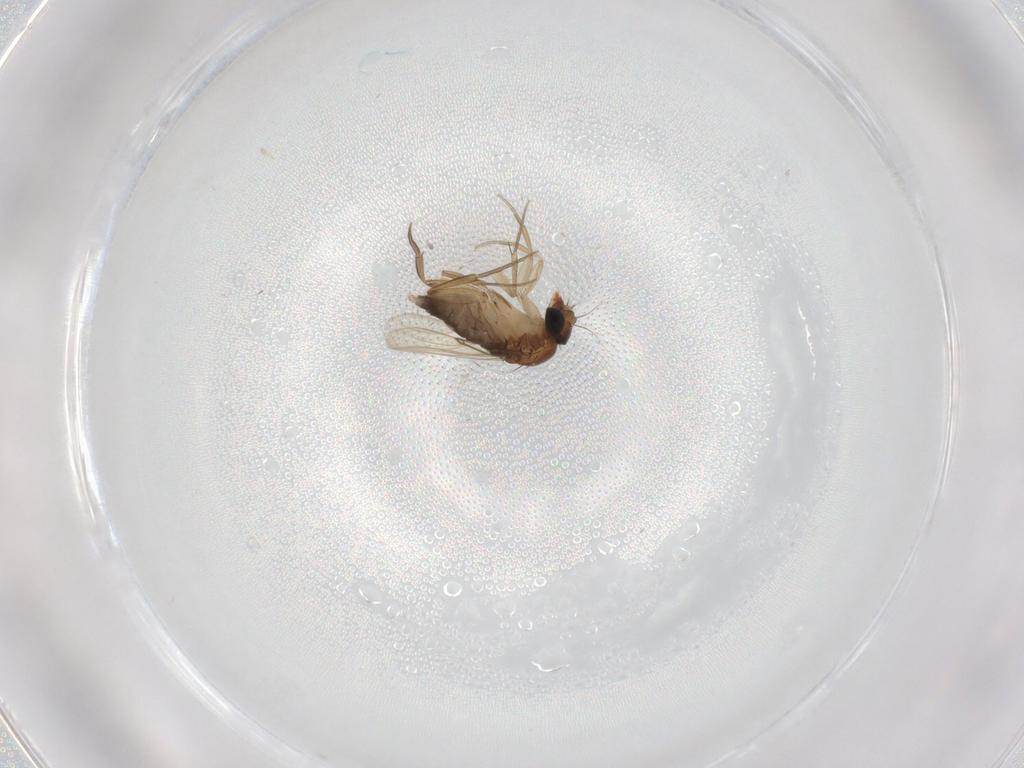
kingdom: Animalia
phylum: Arthropoda
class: Insecta
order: Diptera
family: Phoridae
